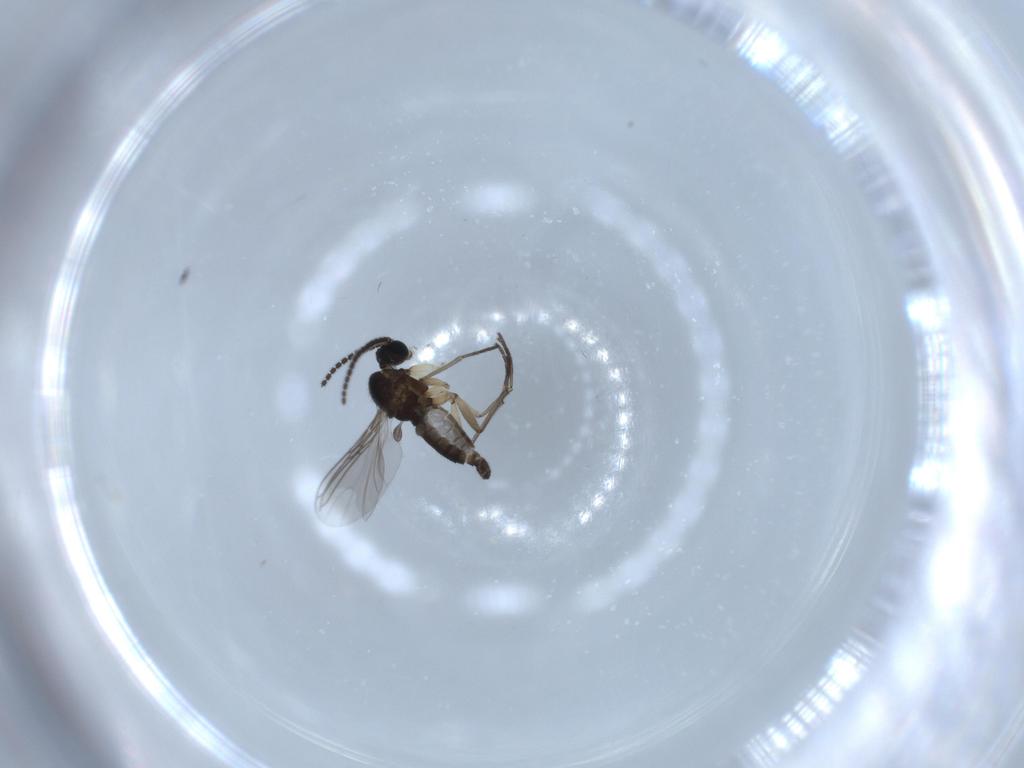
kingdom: Animalia
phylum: Arthropoda
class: Insecta
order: Diptera
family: Sciaridae
